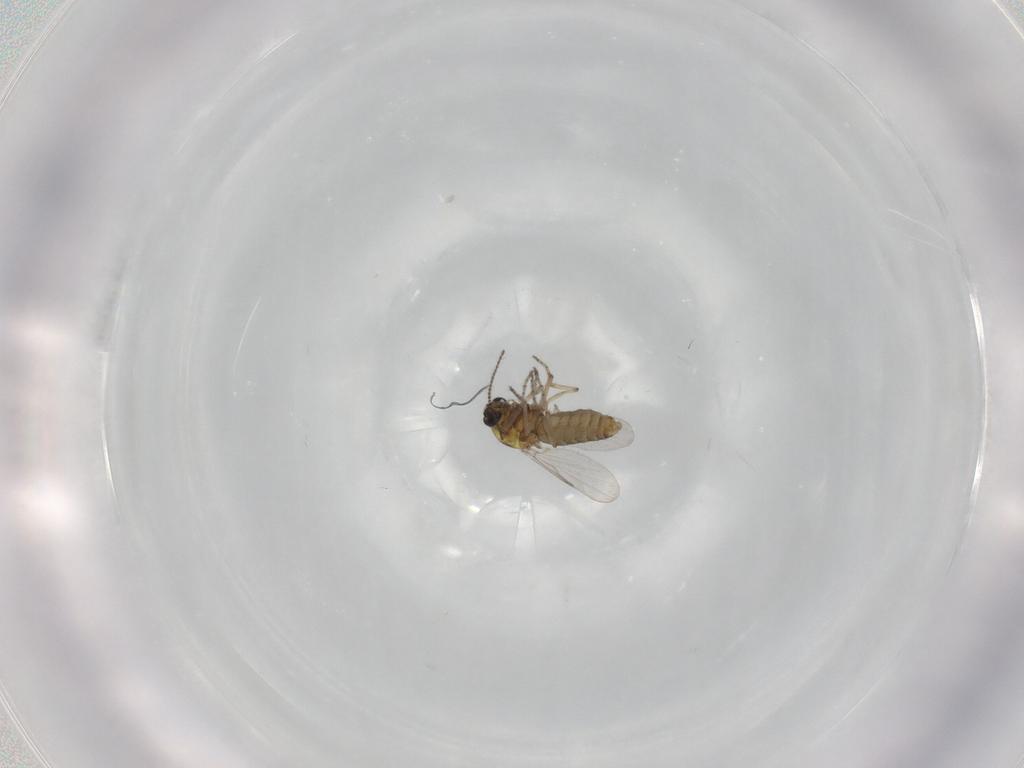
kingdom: Animalia
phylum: Arthropoda
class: Insecta
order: Diptera
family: Ceratopogonidae
